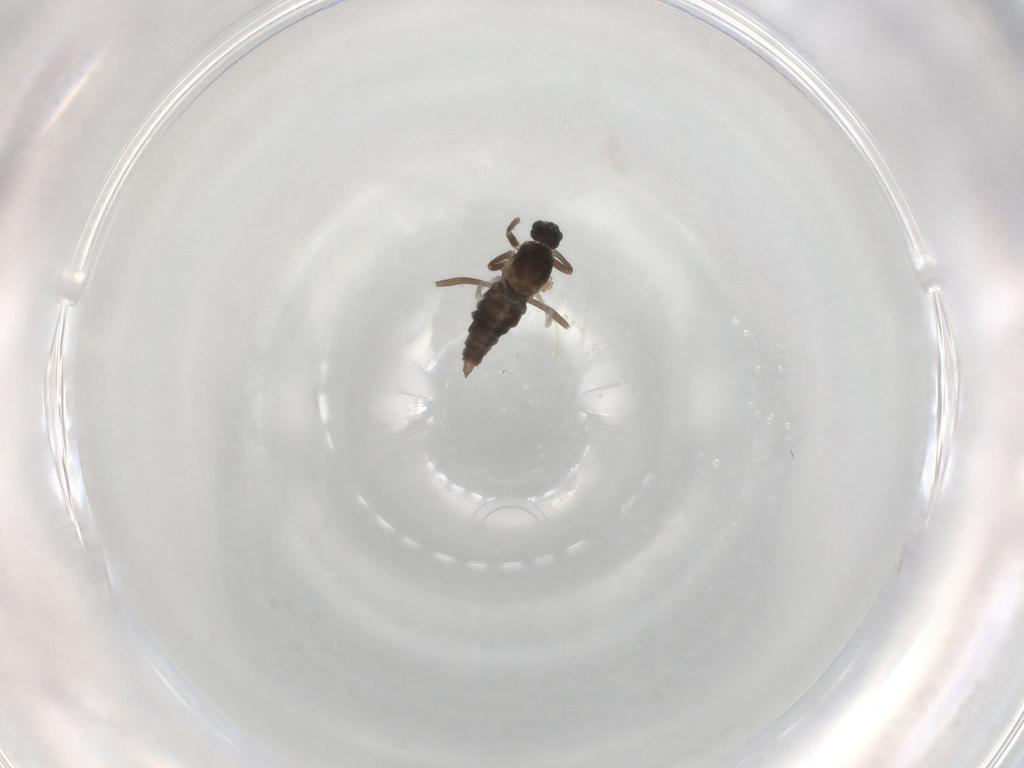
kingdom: Animalia
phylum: Arthropoda
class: Insecta
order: Diptera
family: Cecidomyiidae
